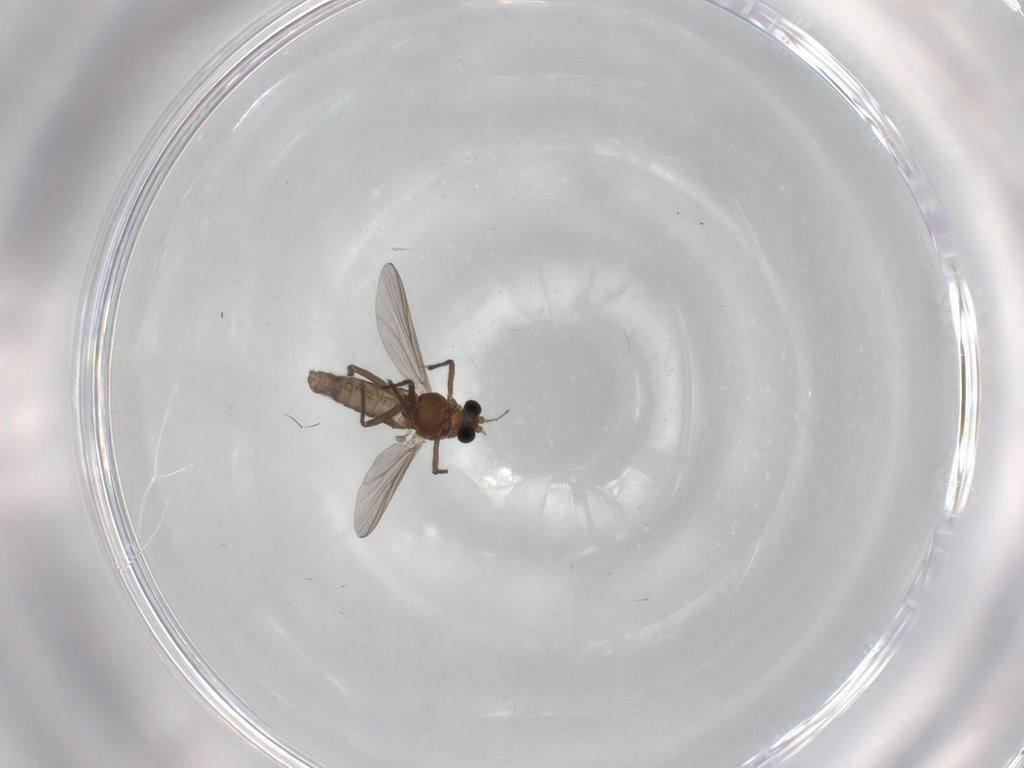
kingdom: Animalia
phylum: Arthropoda
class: Insecta
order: Diptera
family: Chironomidae
